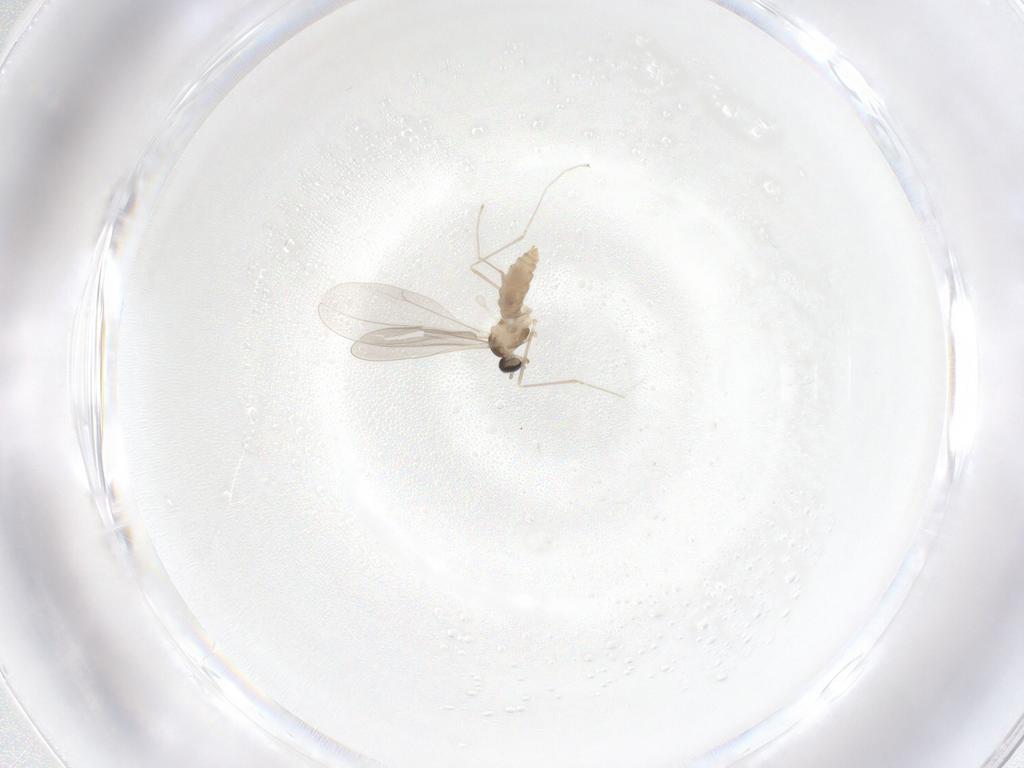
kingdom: Animalia
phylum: Arthropoda
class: Insecta
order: Diptera
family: Cecidomyiidae
